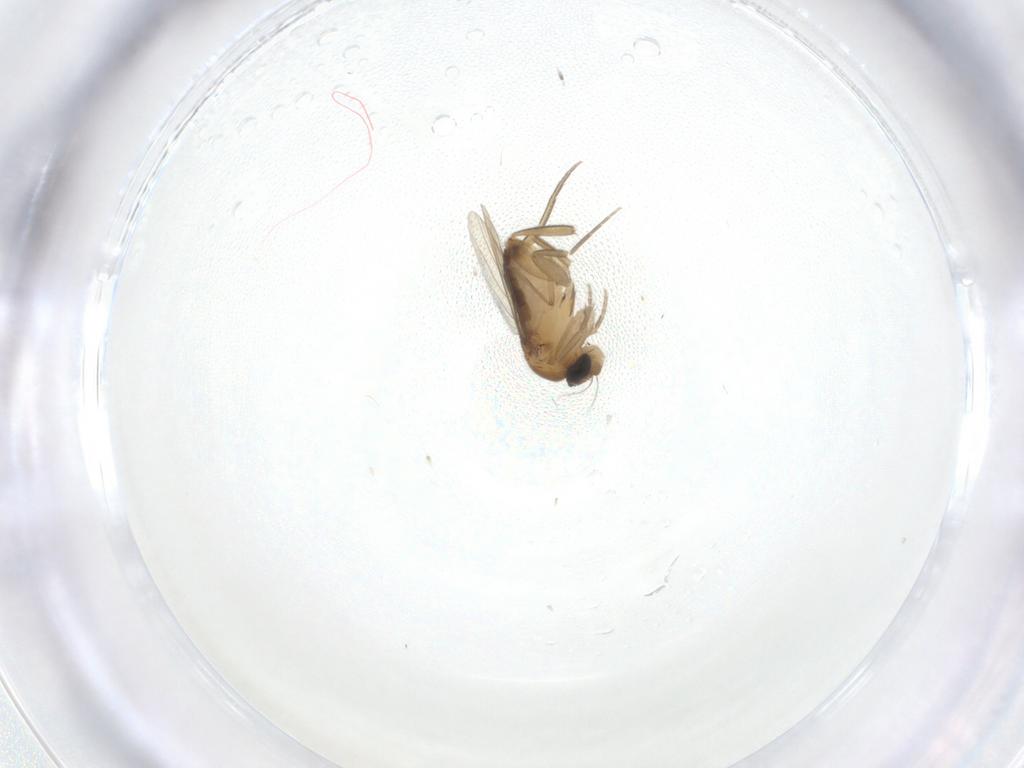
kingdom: Animalia
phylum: Arthropoda
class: Insecta
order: Diptera
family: Phoridae
